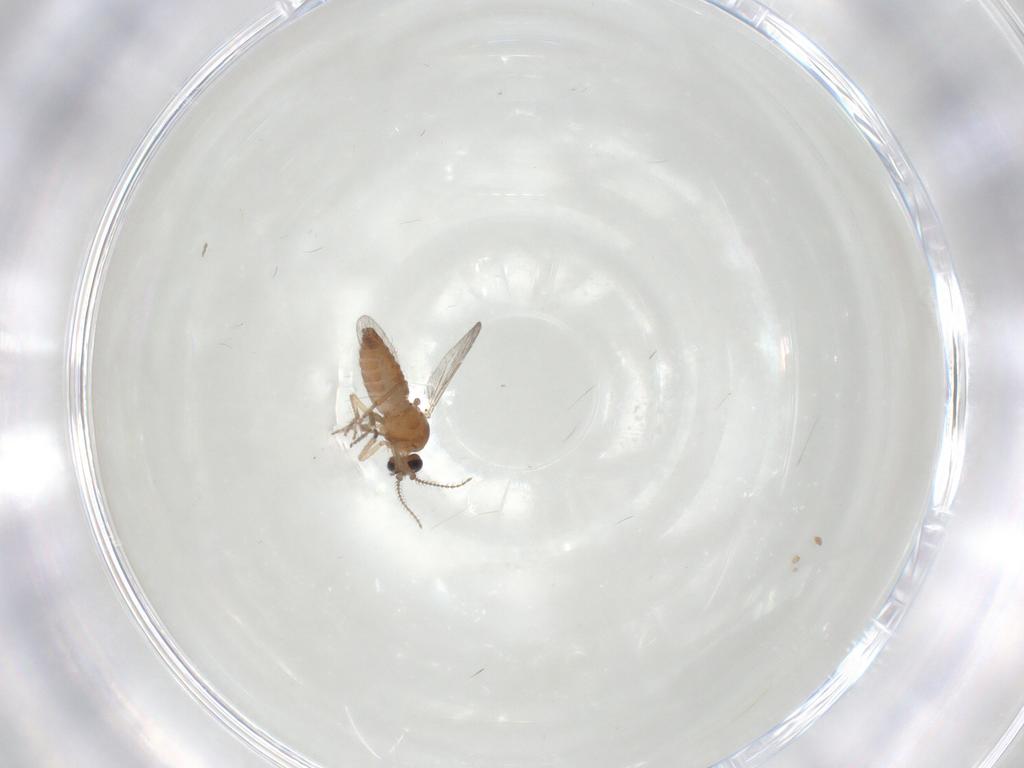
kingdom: Animalia
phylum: Arthropoda
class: Insecta
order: Diptera
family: Ceratopogonidae
